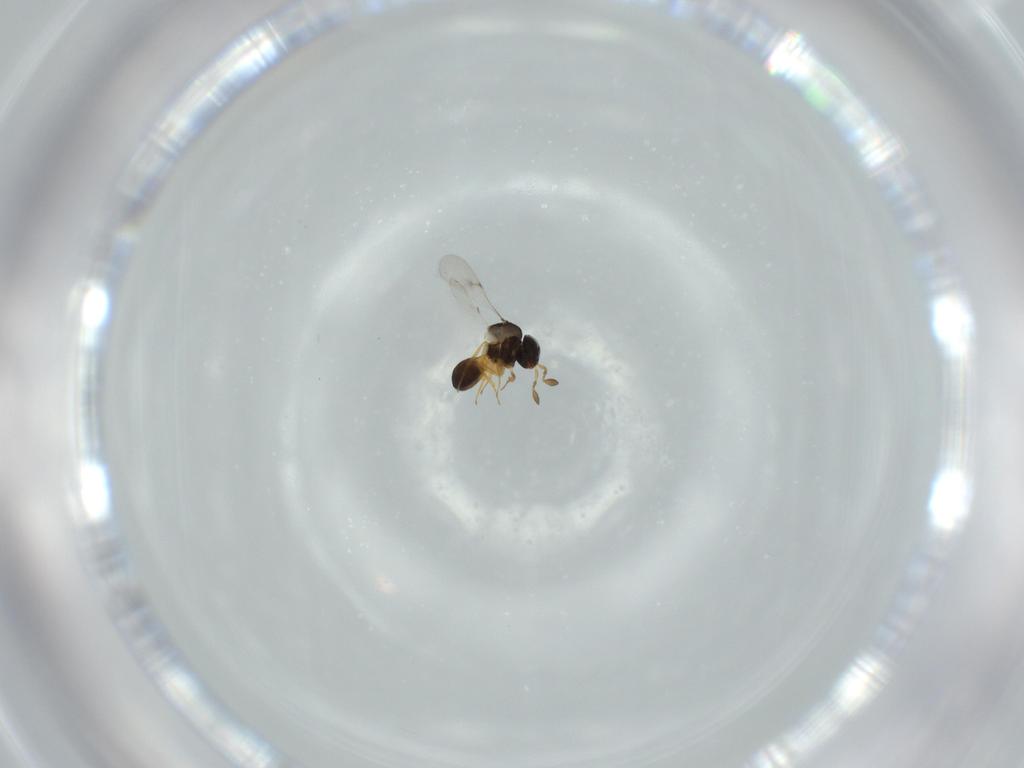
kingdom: Animalia
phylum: Arthropoda
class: Insecta
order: Hymenoptera
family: Scelionidae
